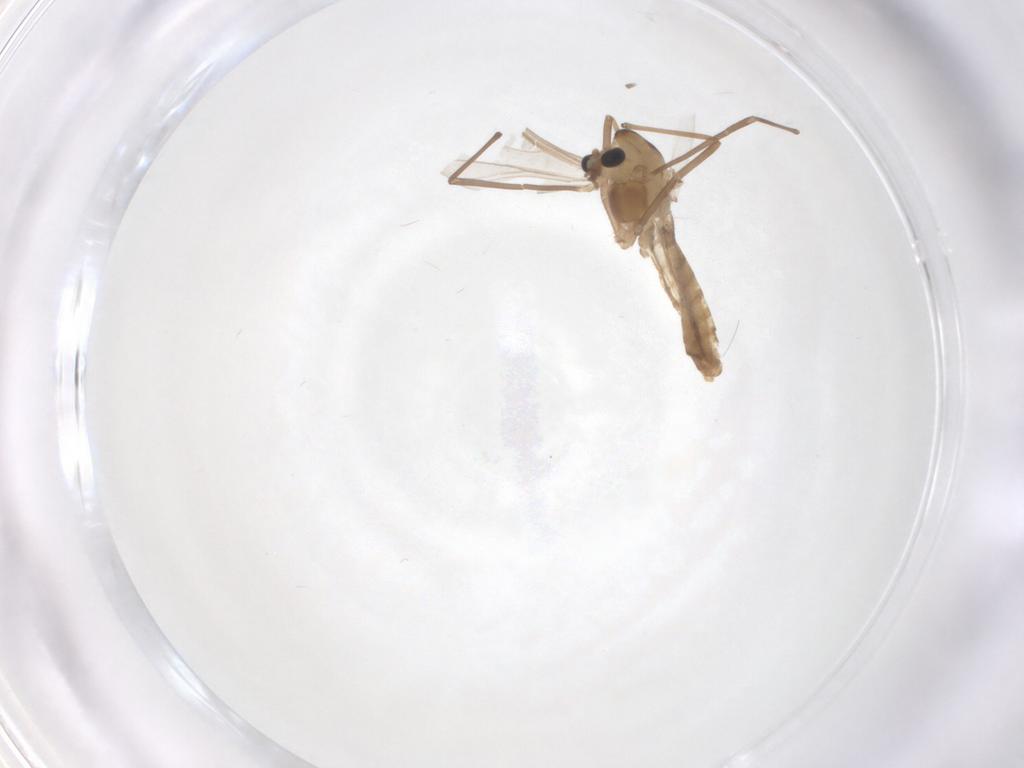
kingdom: Animalia
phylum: Arthropoda
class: Insecta
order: Diptera
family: Chironomidae
